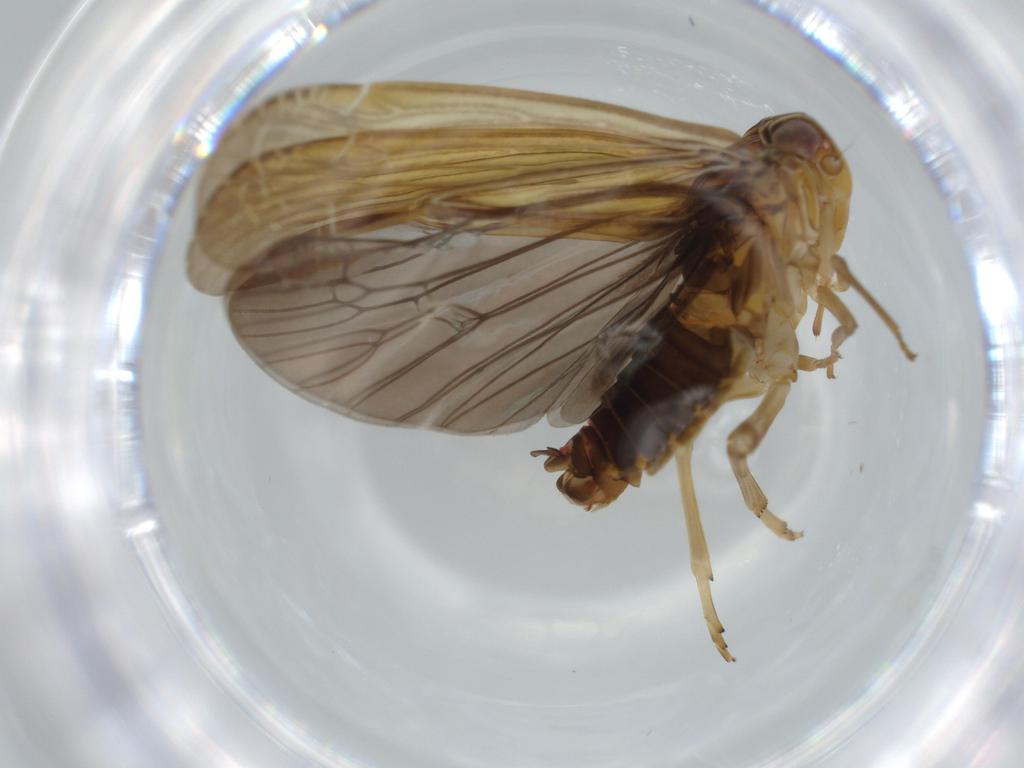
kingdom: Animalia
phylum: Arthropoda
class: Insecta
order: Hemiptera
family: Achilidae
